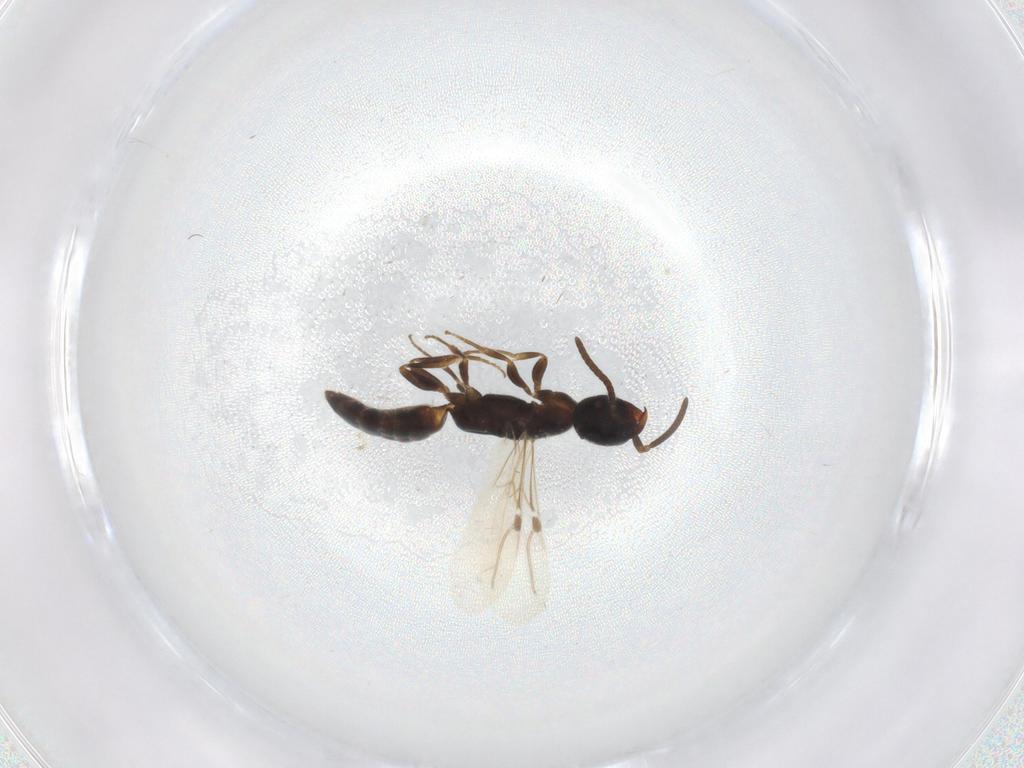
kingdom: Animalia
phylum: Arthropoda
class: Insecta
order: Hymenoptera
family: Bethylidae
